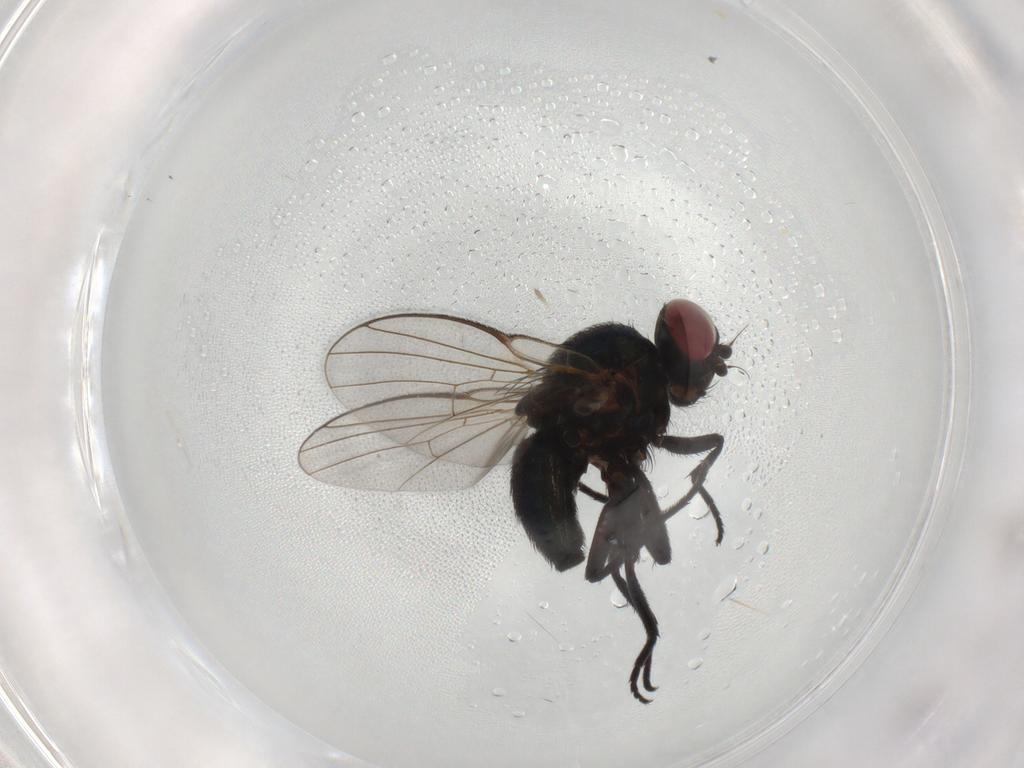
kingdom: Animalia
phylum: Arthropoda
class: Insecta
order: Diptera
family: Agromyzidae
